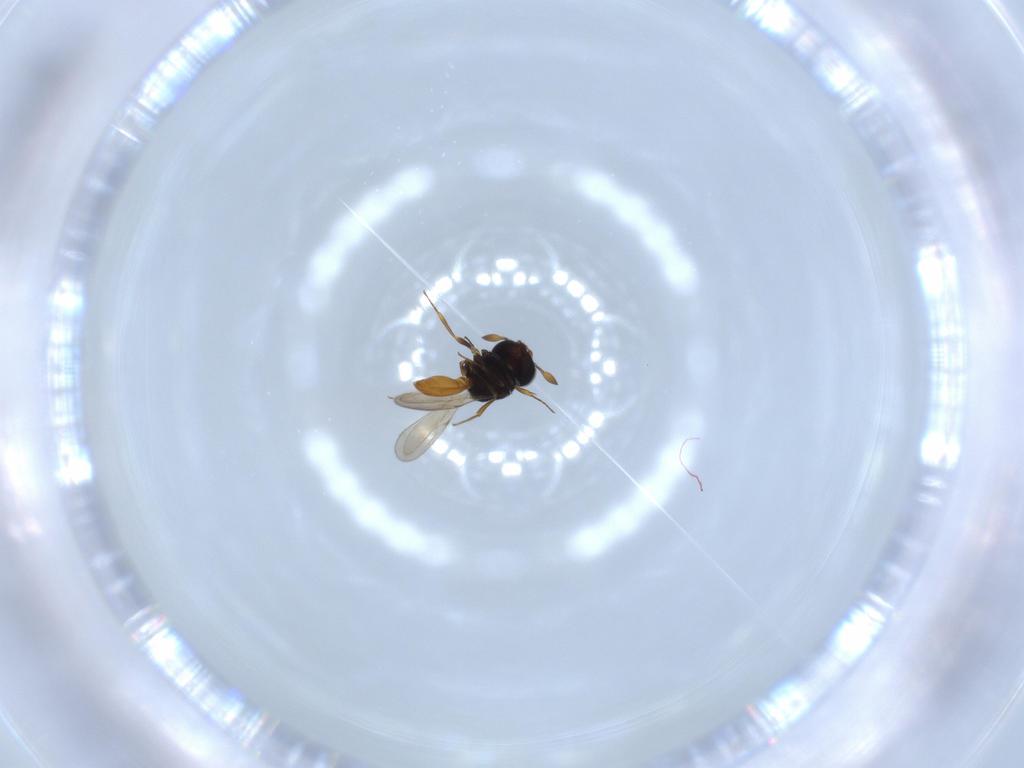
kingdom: Animalia
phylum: Arthropoda
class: Insecta
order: Hymenoptera
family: Scelionidae
